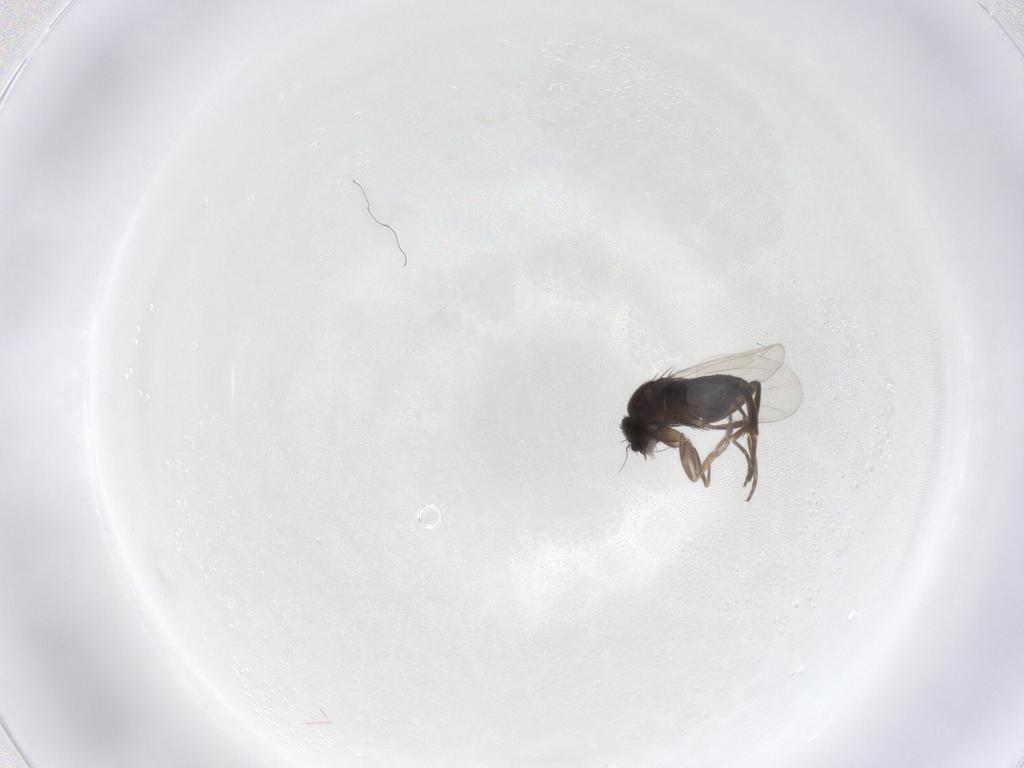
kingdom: Animalia
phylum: Arthropoda
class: Insecta
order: Diptera
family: Phoridae
